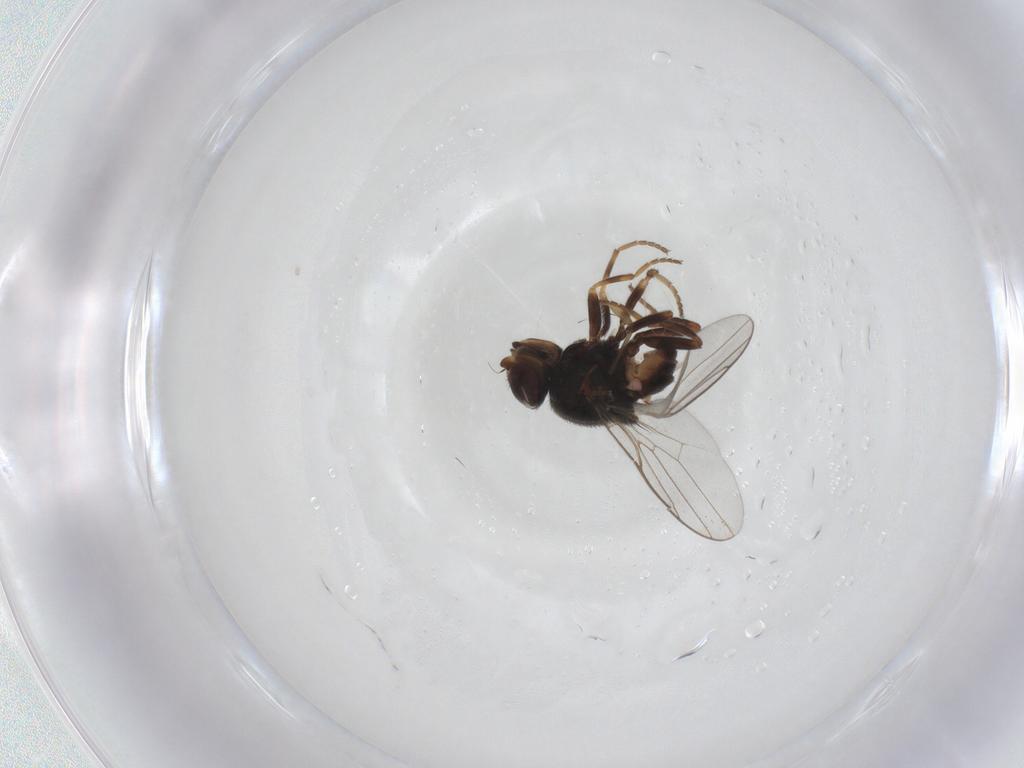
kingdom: Animalia
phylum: Arthropoda
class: Insecta
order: Diptera
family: Chloropidae
